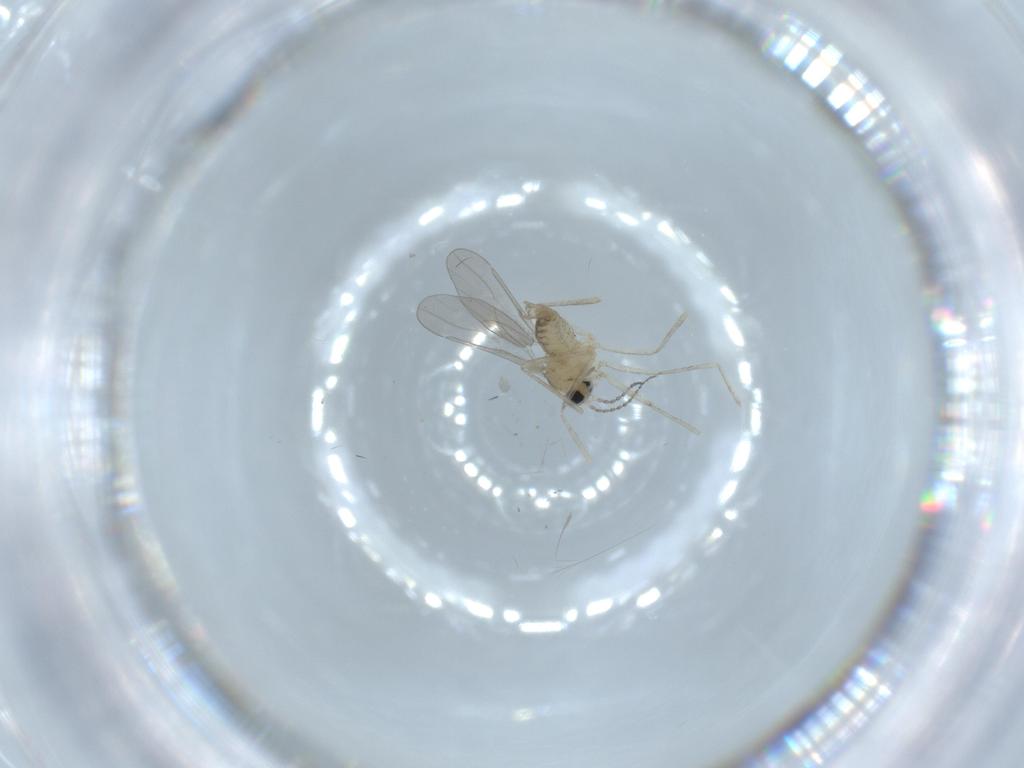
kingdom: Animalia
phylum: Arthropoda
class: Insecta
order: Diptera
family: Cecidomyiidae
